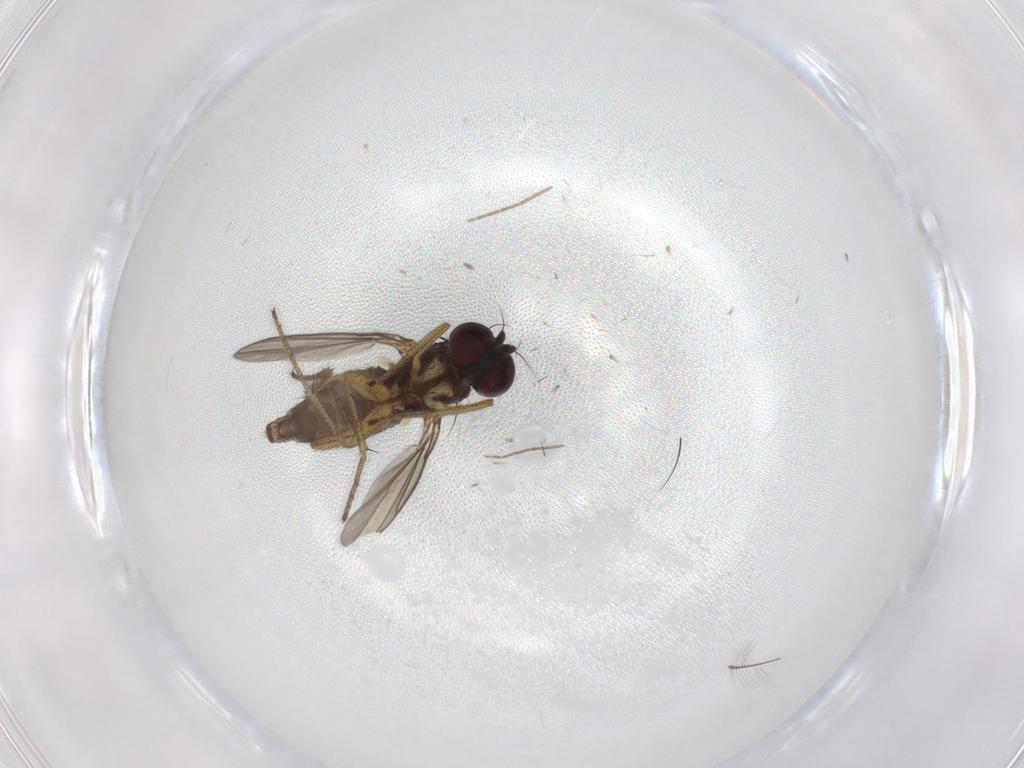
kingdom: Animalia
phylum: Arthropoda
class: Insecta
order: Diptera
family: Dolichopodidae
